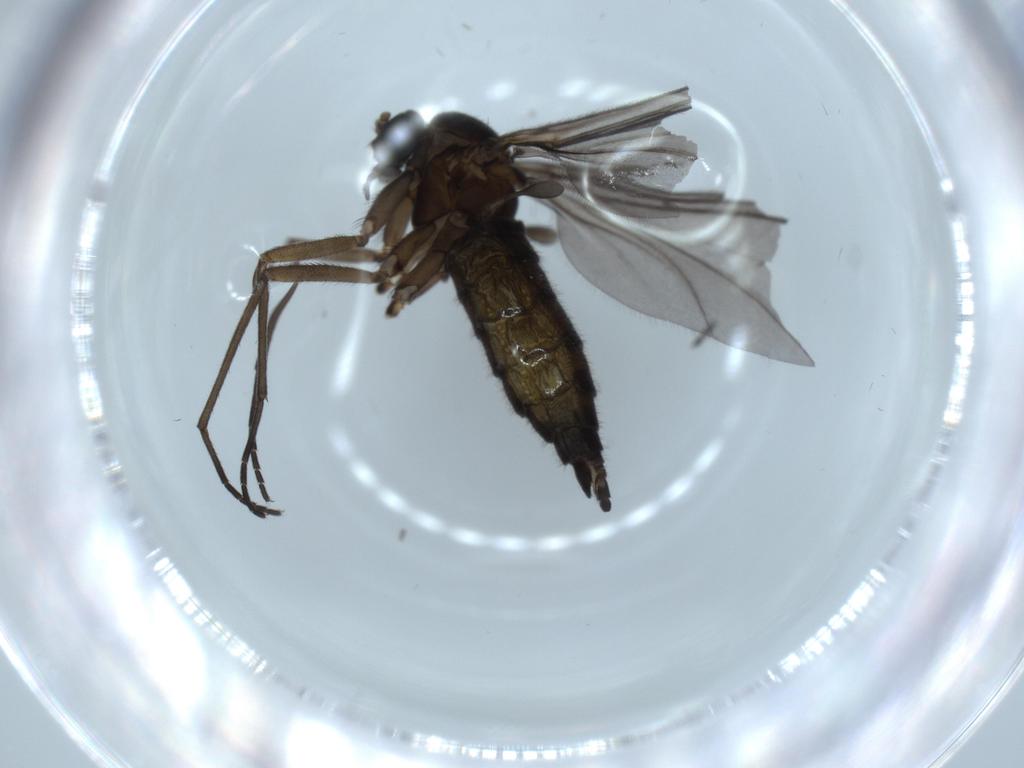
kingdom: Animalia
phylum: Arthropoda
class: Insecta
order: Diptera
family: Sciaridae
